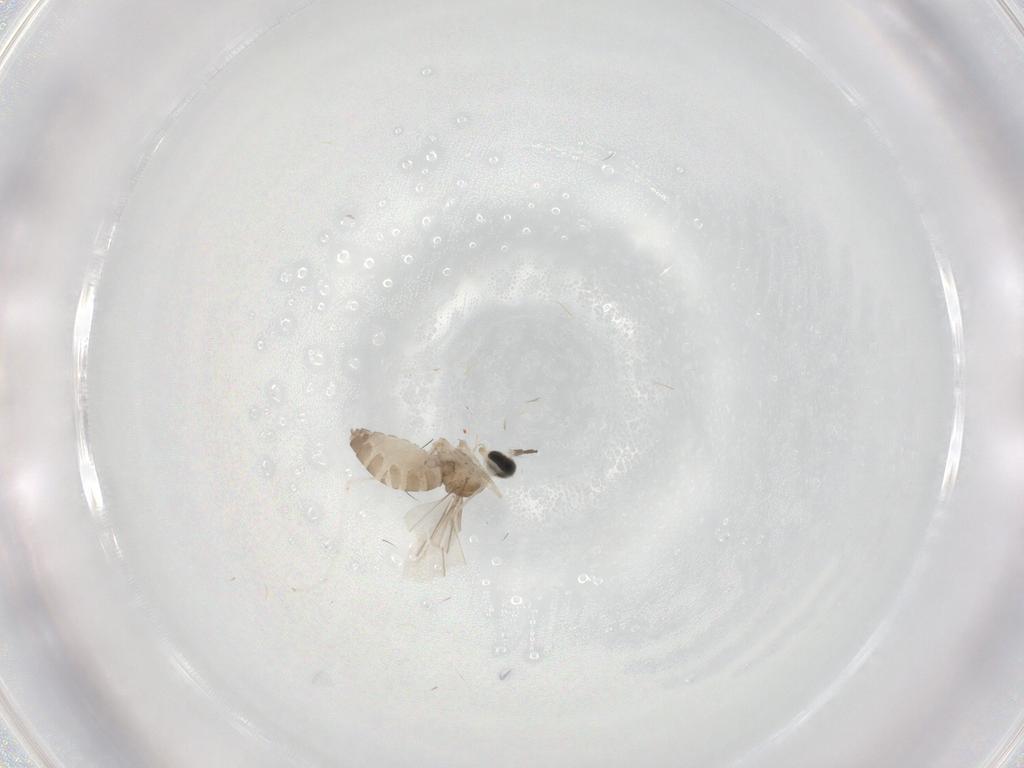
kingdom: Animalia
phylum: Arthropoda
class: Insecta
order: Diptera
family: Cecidomyiidae
